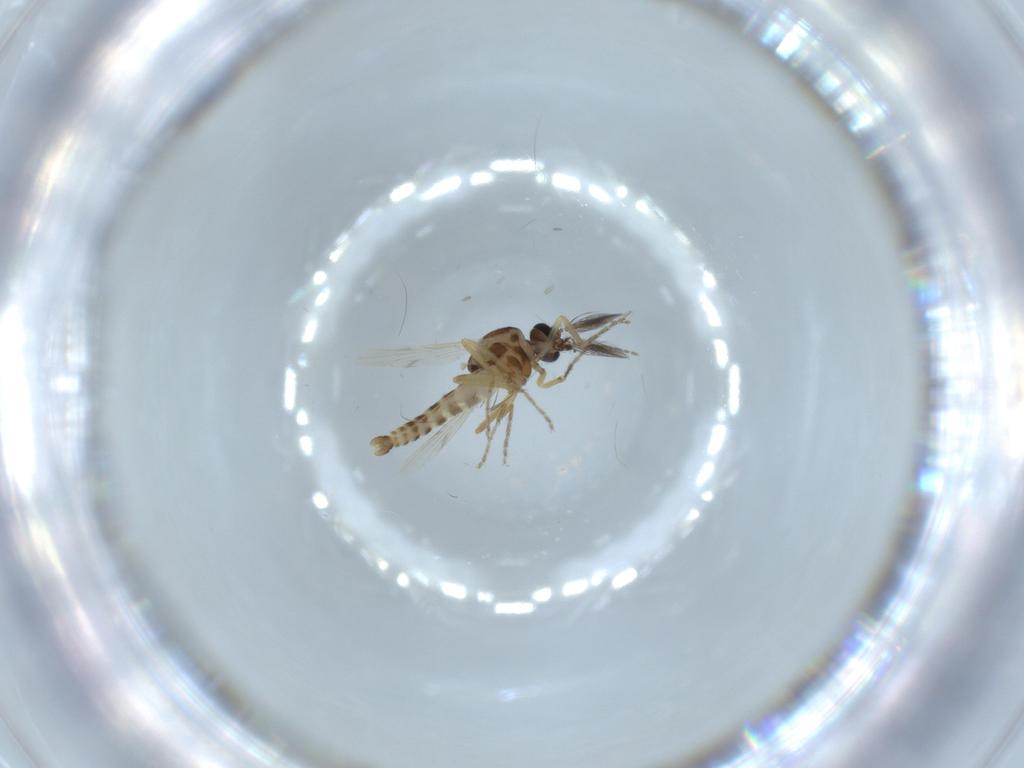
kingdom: Animalia
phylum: Arthropoda
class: Insecta
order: Diptera
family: Ceratopogonidae
